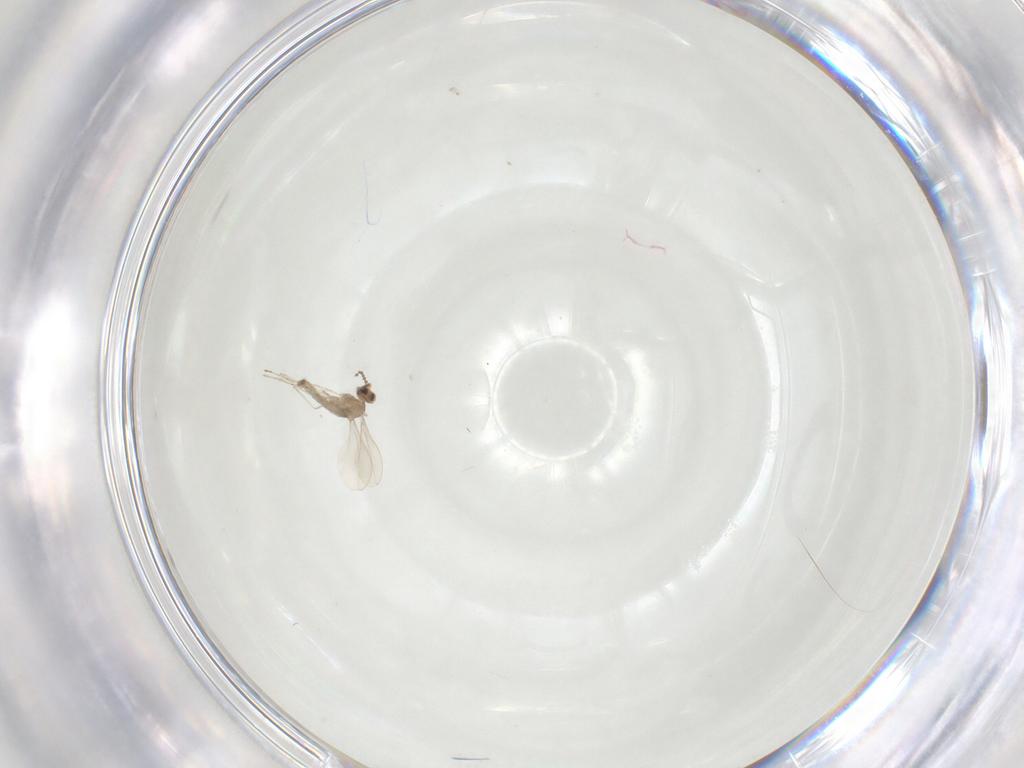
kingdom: Animalia
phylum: Arthropoda
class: Insecta
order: Diptera
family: Cecidomyiidae
